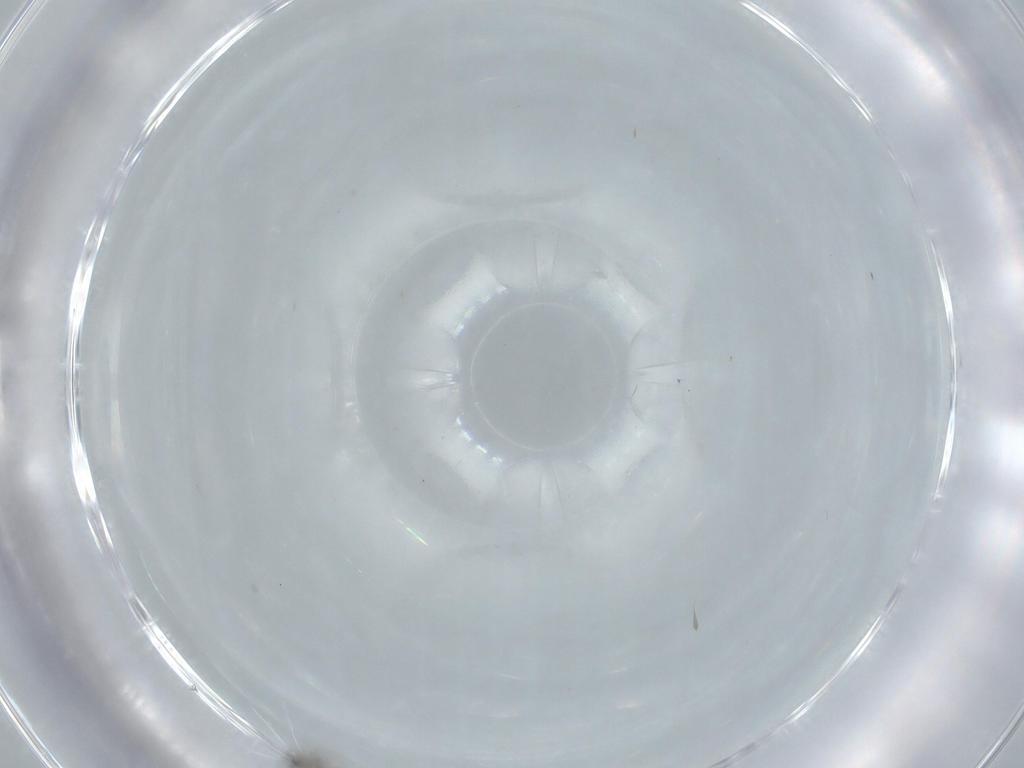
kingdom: Animalia
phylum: Arthropoda
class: Insecta
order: Diptera
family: Cecidomyiidae
